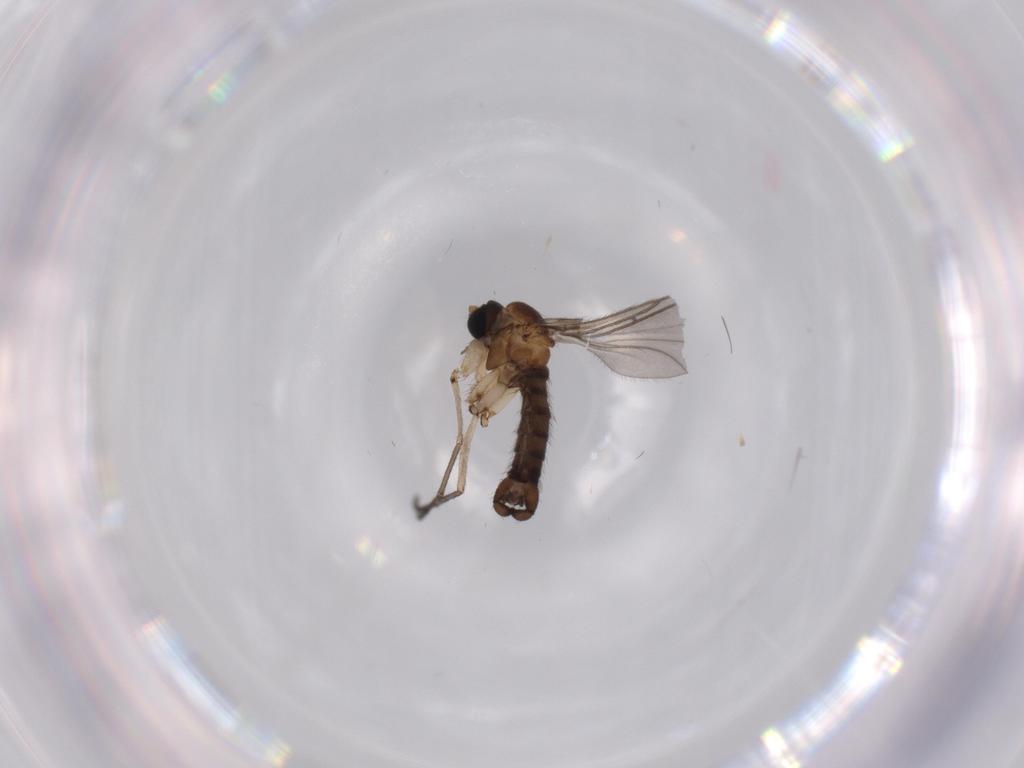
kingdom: Animalia
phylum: Arthropoda
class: Insecta
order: Diptera
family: Sciaridae
